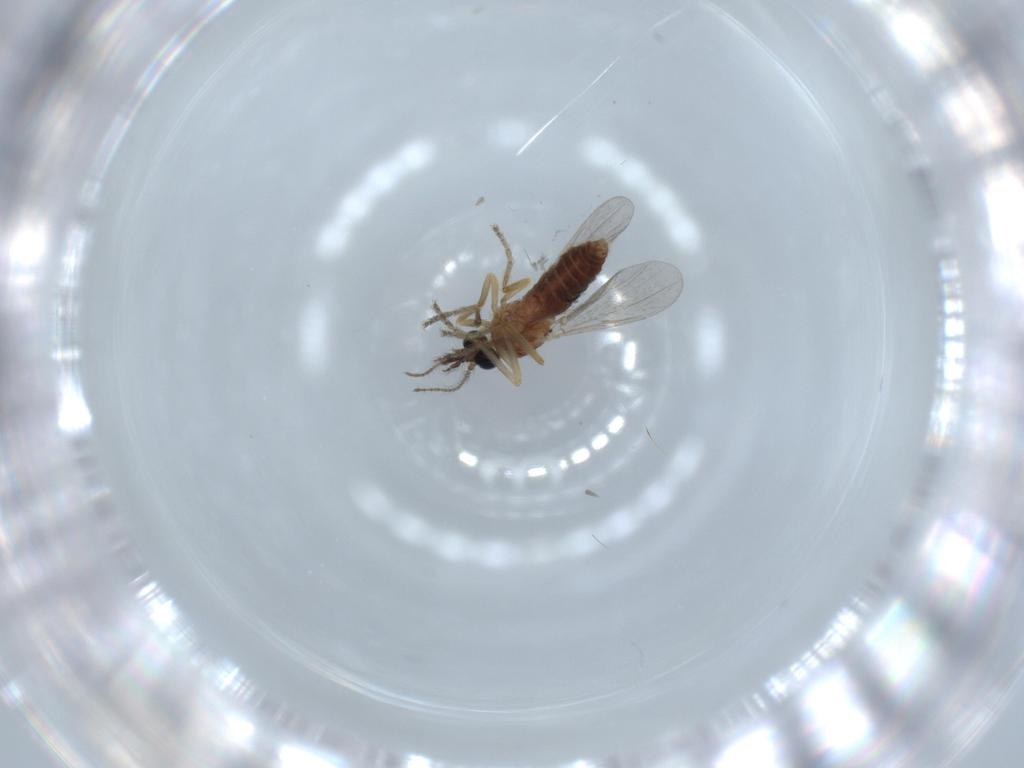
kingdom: Animalia
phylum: Arthropoda
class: Insecta
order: Diptera
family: Ceratopogonidae
